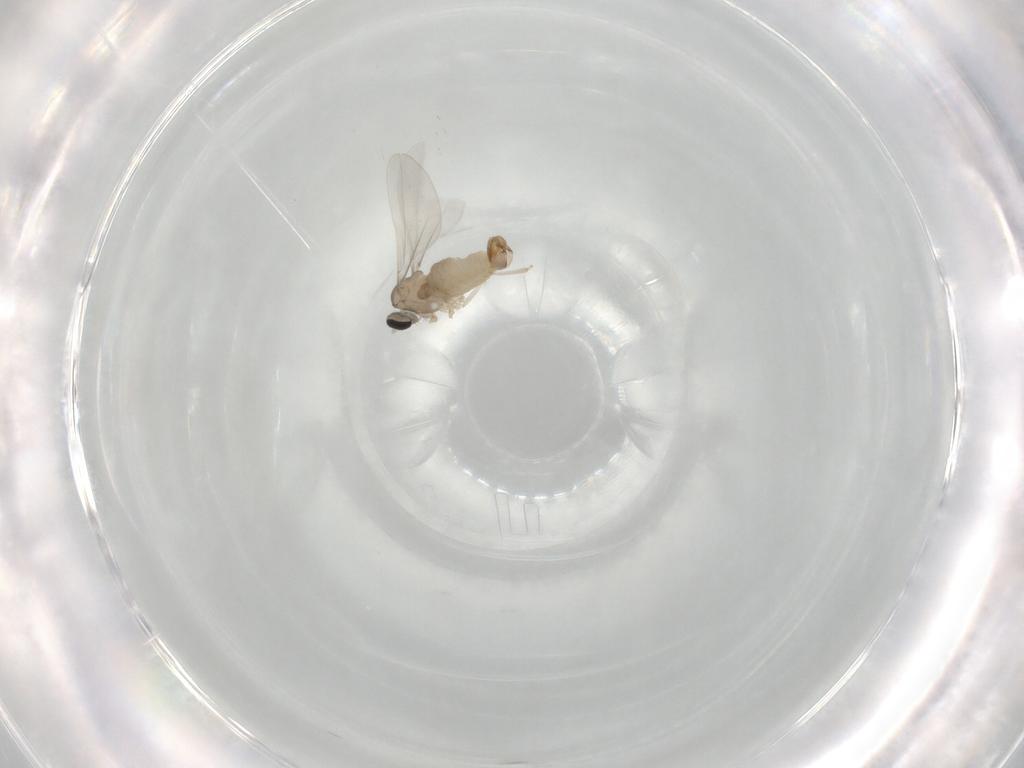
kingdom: Animalia
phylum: Arthropoda
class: Insecta
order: Diptera
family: Cecidomyiidae
